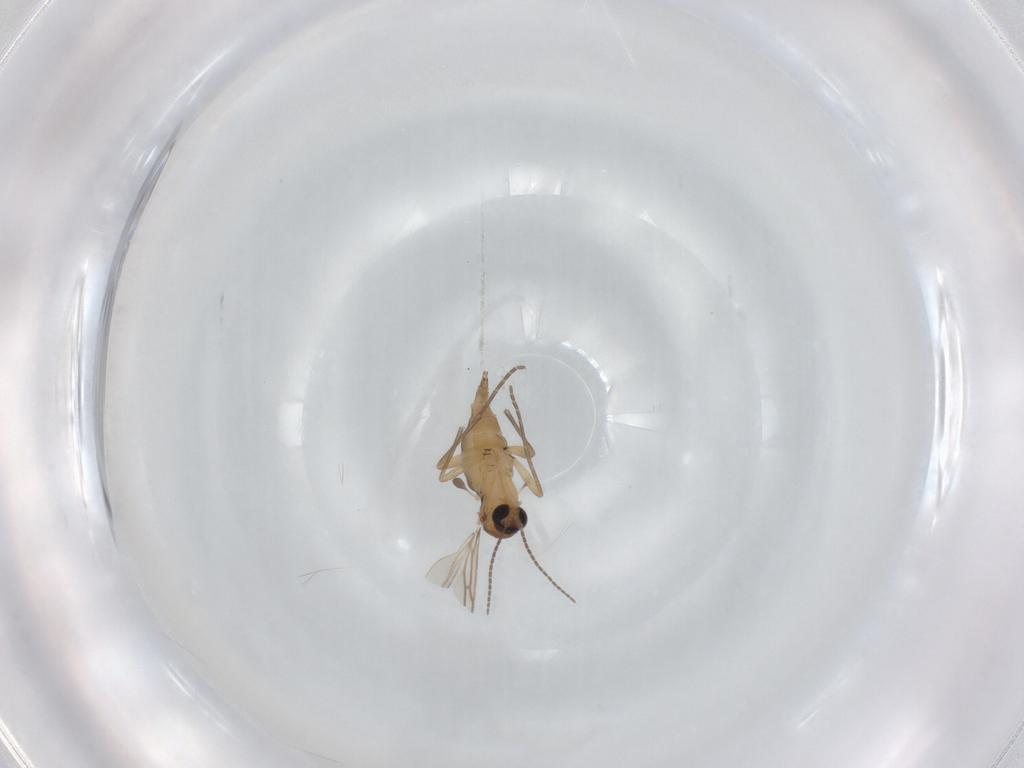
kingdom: Animalia
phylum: Arthropoda
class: Insecta
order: Diptera
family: Sciaridae
